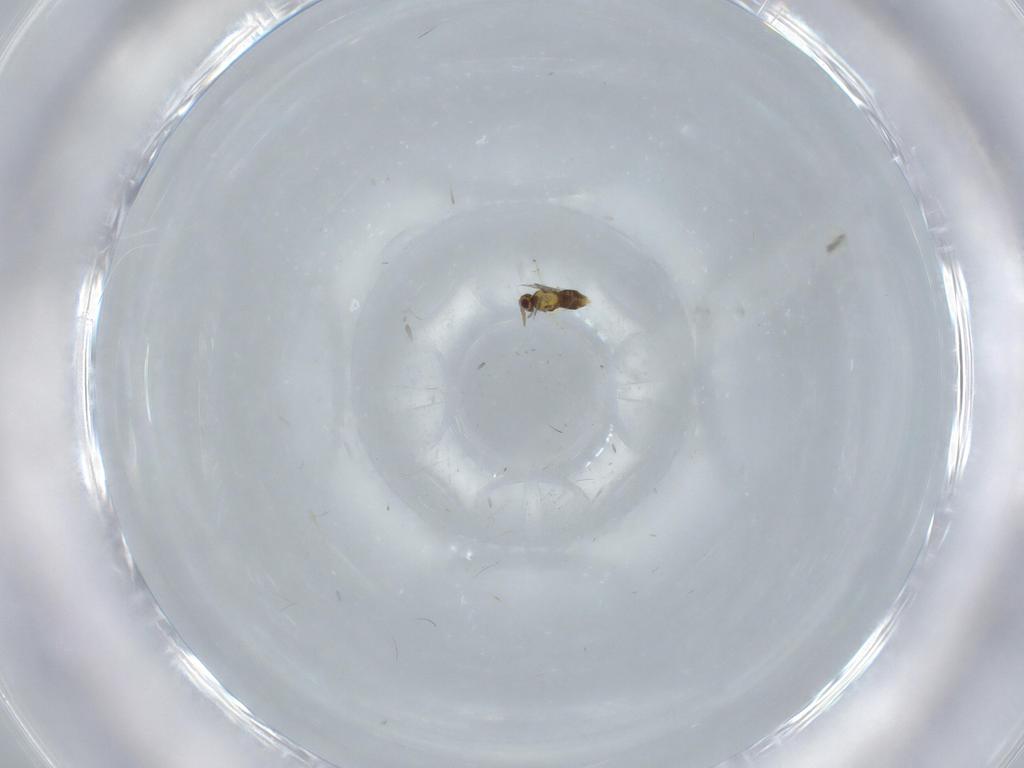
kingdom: Animalia
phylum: Arthropoda
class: Insecta
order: Hymenoptera
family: Aphelinidae
